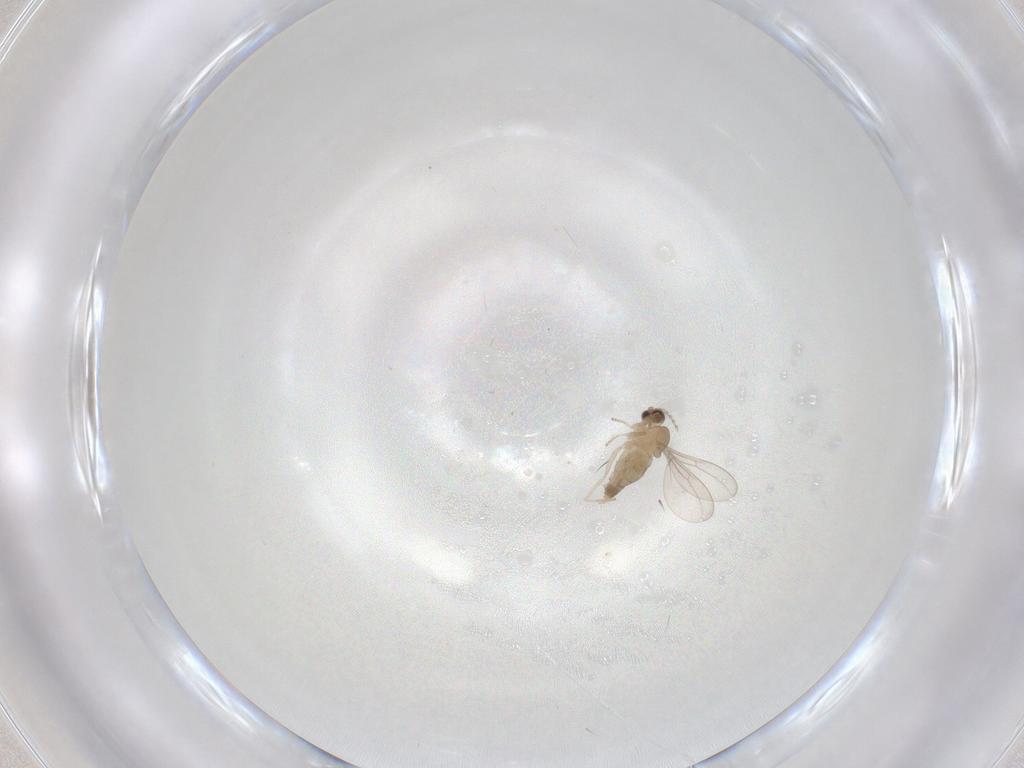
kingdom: Animalia
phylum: Arthropoda
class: Insecta
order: Diptera
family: Cecidomyiidae
